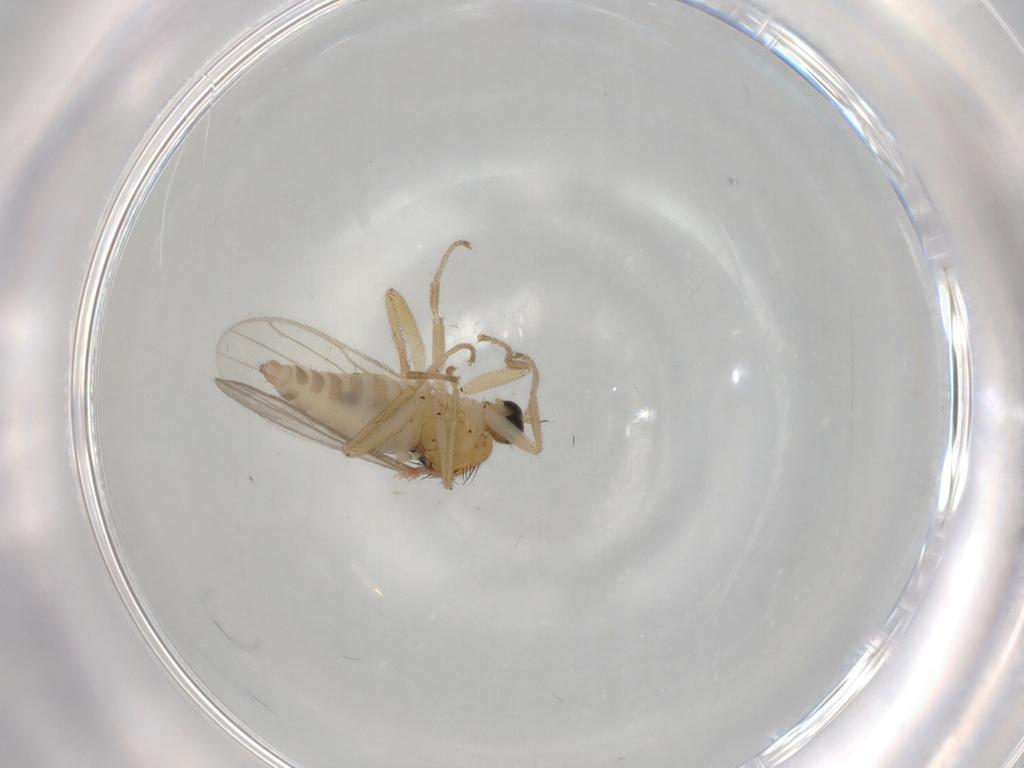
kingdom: Animalia
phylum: Arthropoda
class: Insecta
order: Diptera
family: Hybotidae
